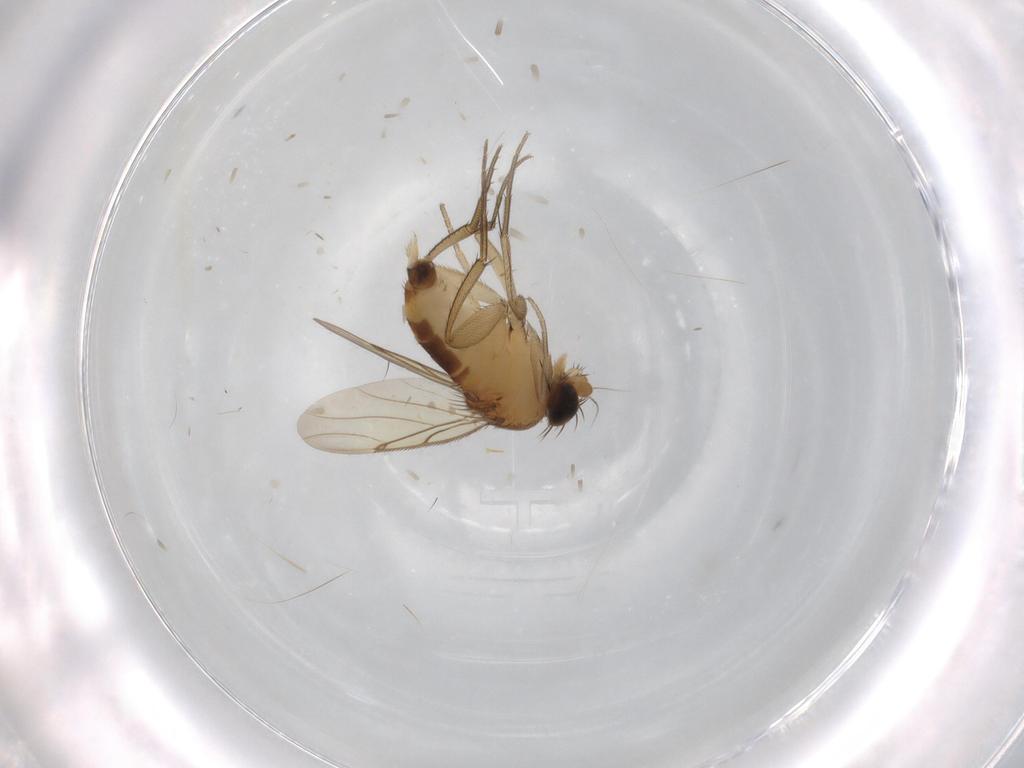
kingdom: Animalia
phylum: Arthropoda
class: Insecta
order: Diptera
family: Phoridae
